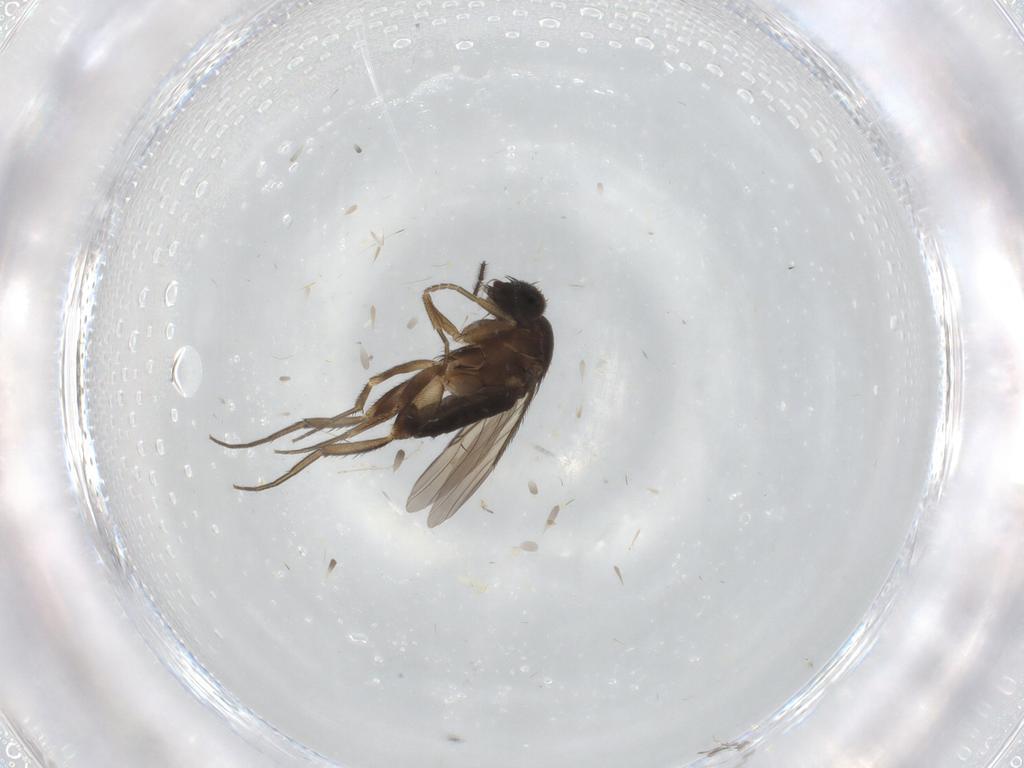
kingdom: Animalia
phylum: Arthropoda
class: Insecta
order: Diptera
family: Phoridae
